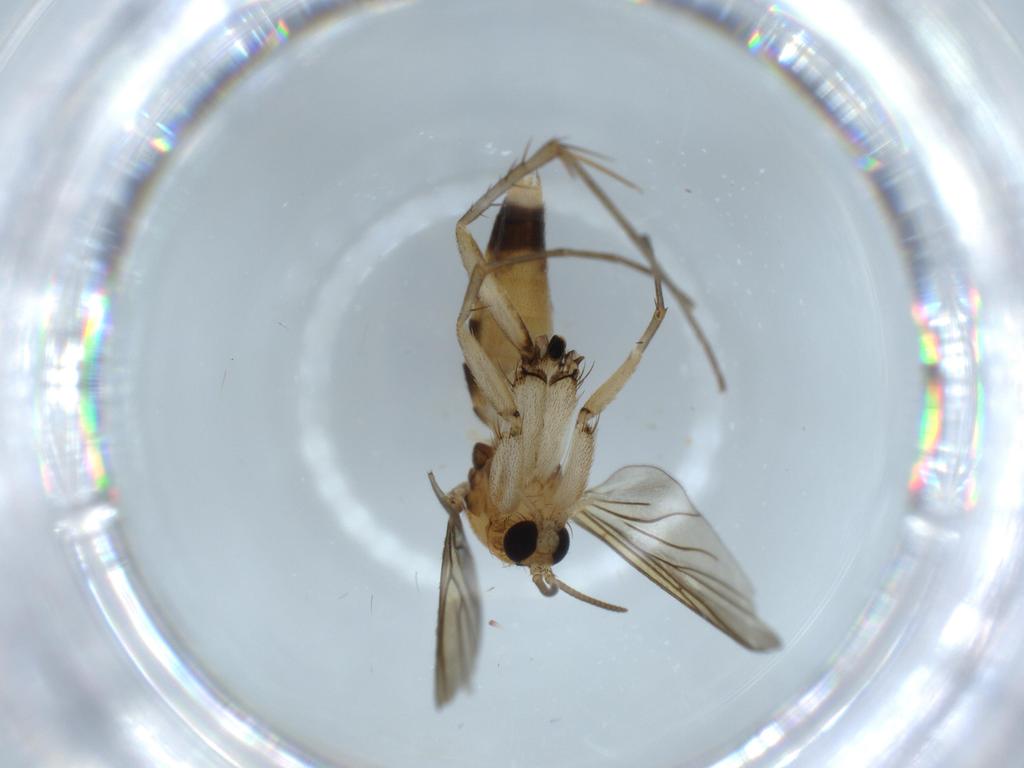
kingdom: Animalia
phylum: Arthropoda
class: Insecta
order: Diptera
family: Mycetophilidae
